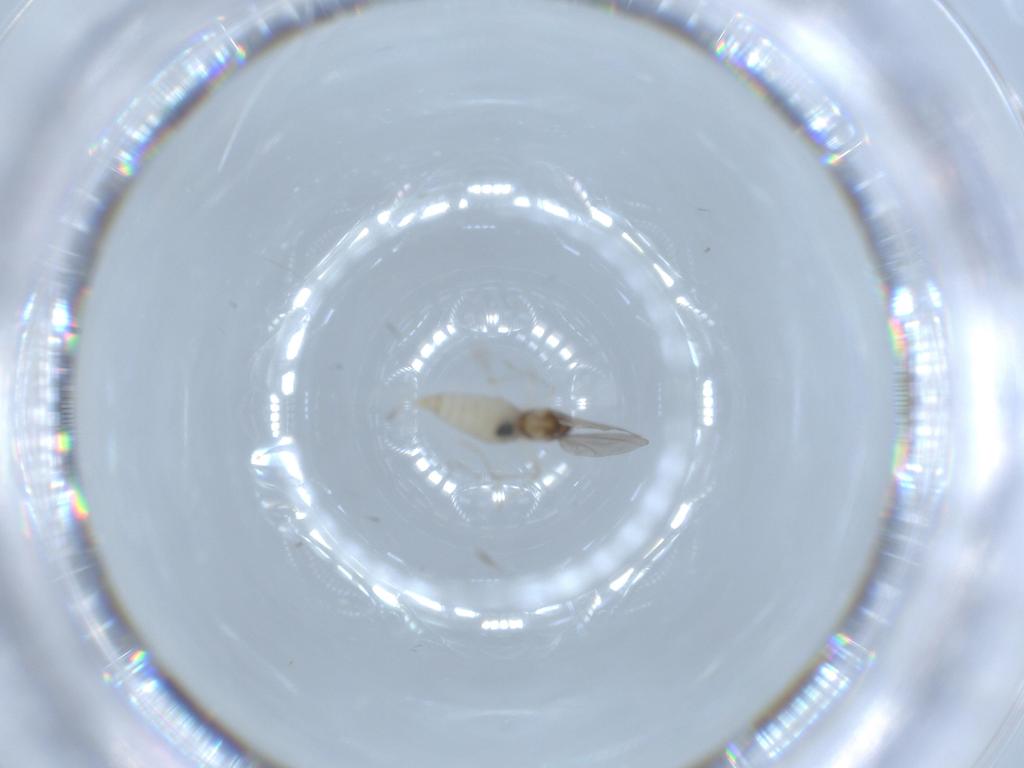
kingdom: Animalia
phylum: Arthropoda
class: Insecta
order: Diptera
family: Cecidomyiidae
